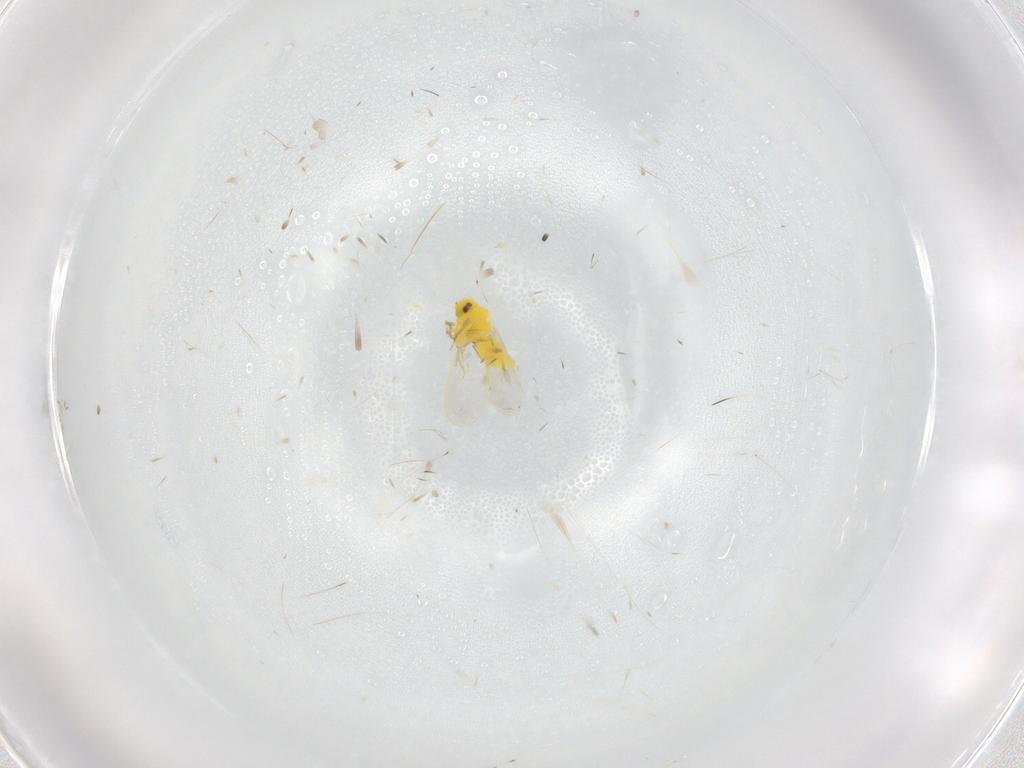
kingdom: Animalia
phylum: Arthropoda
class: Insecta
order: Hemiptera
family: Aleyrodidae
